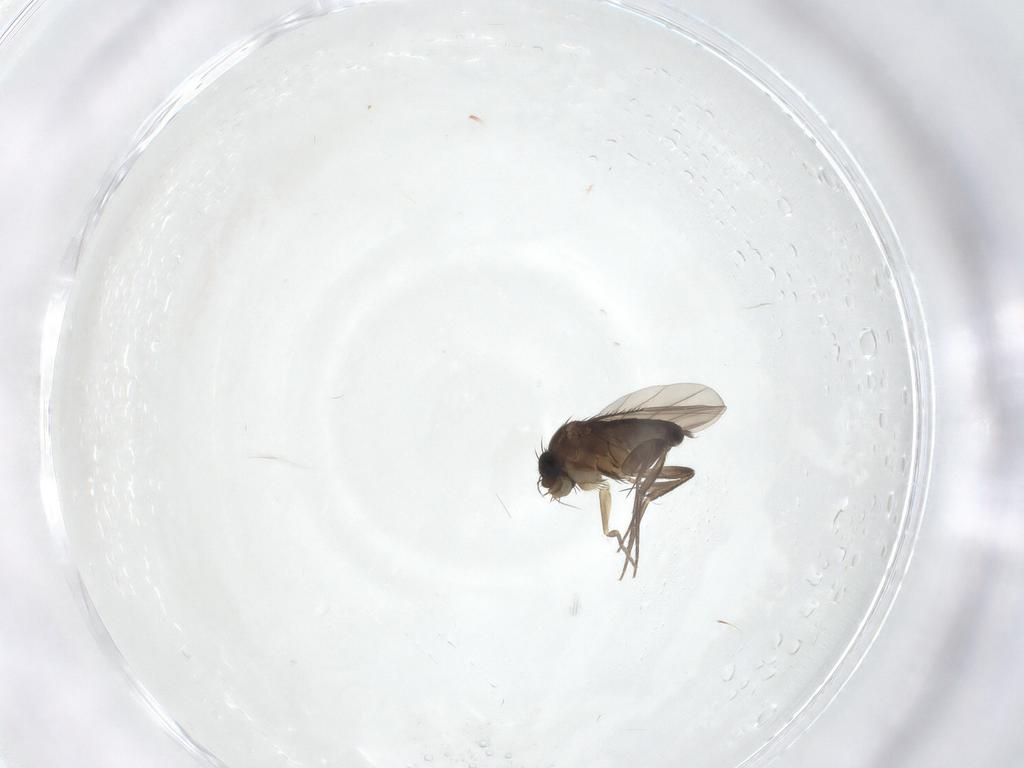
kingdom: Animalia
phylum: Arthropoda
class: Insecta
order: Diptera
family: Phoridae
